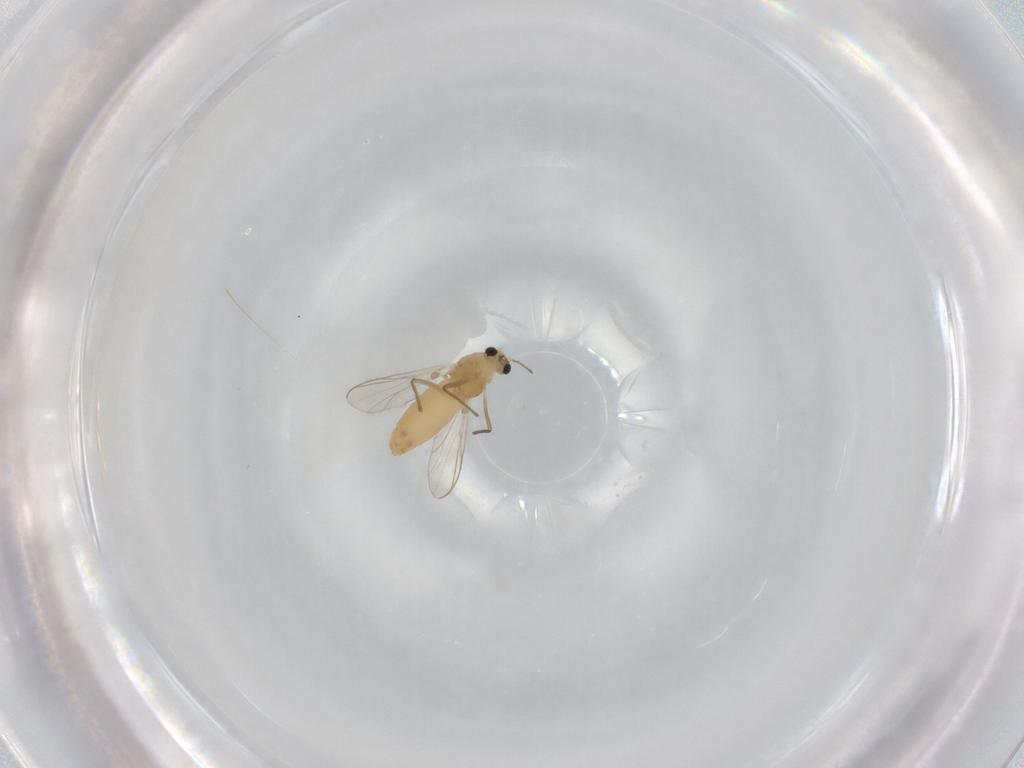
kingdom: Animalia
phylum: Arthropoda
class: Insecta
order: Diptera
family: Chironomidae
